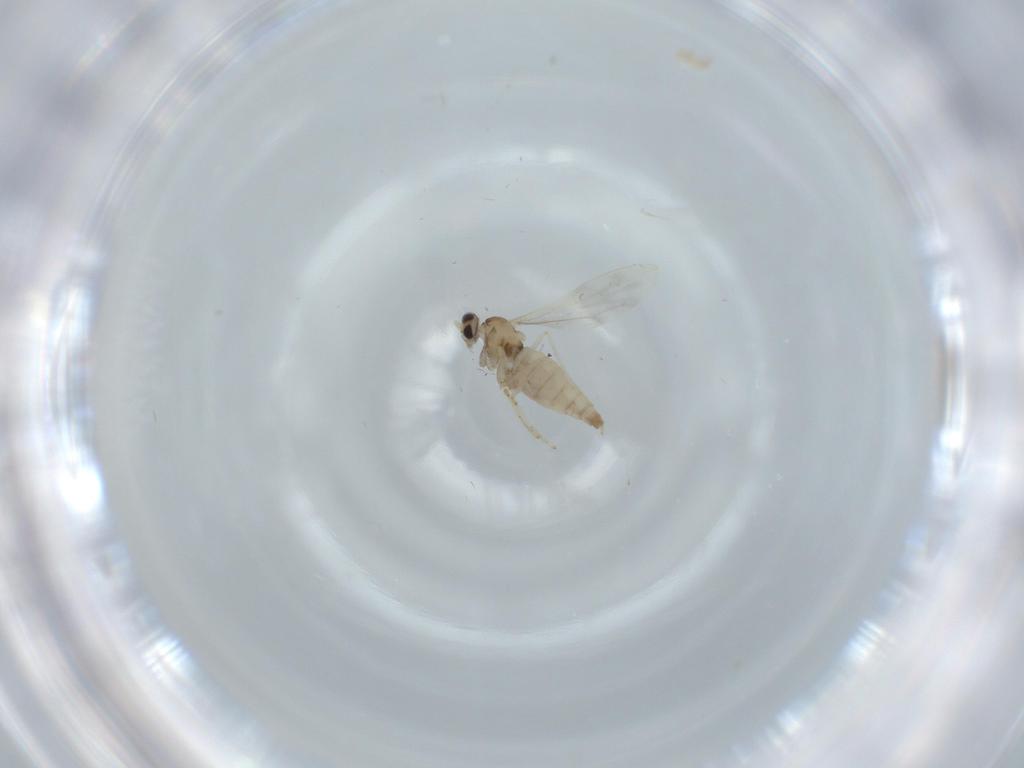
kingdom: Animalia
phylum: Arthropoda
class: Insecta
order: Diptera
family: Cecidomyiidae
